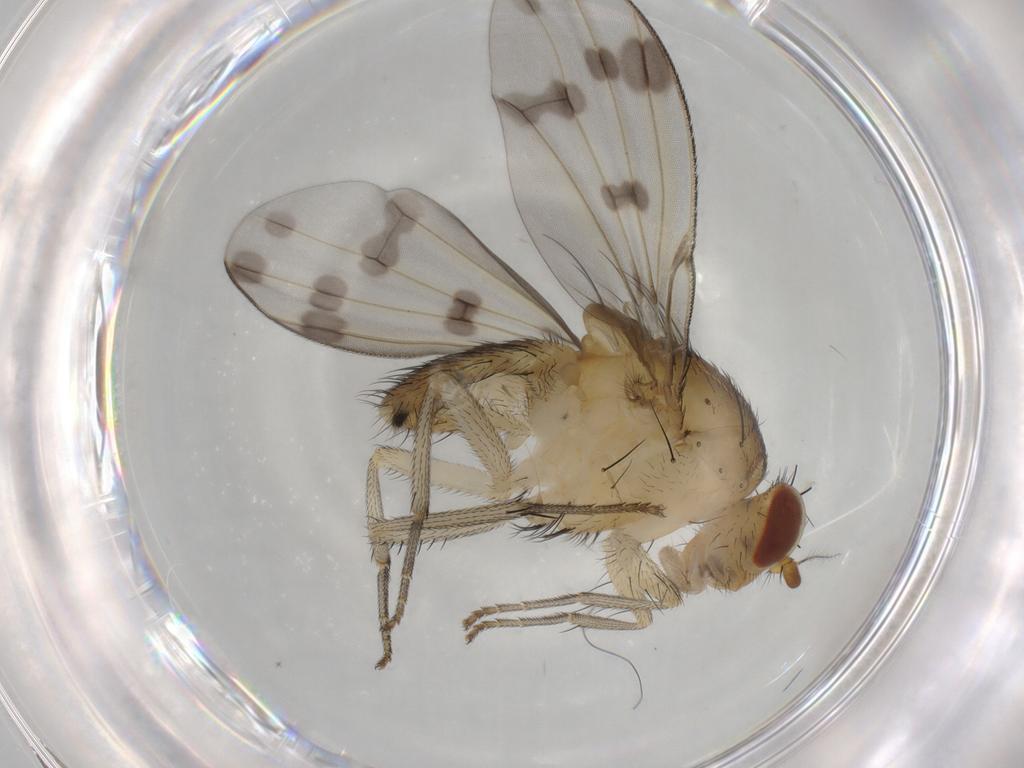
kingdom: Animalia
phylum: Arthropoda
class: Insecta
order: Diptera
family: Ceratopogonidae
